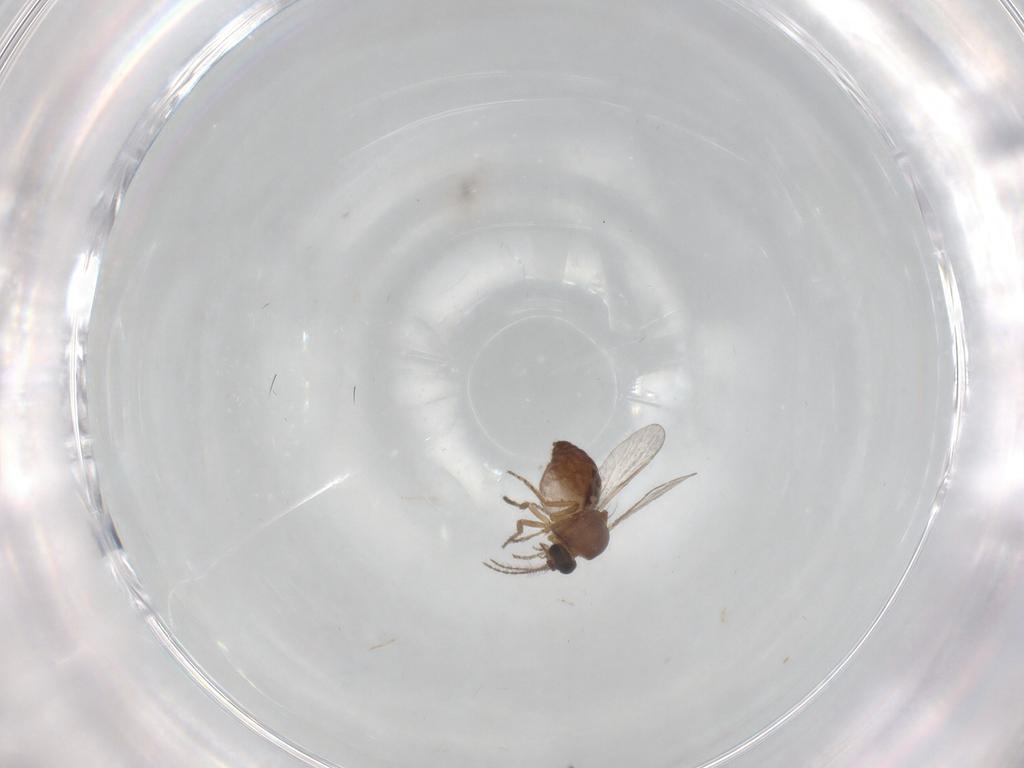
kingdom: Animalia
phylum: Arthropoda
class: Insecta
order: Diptera
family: Ceratopogonidae
